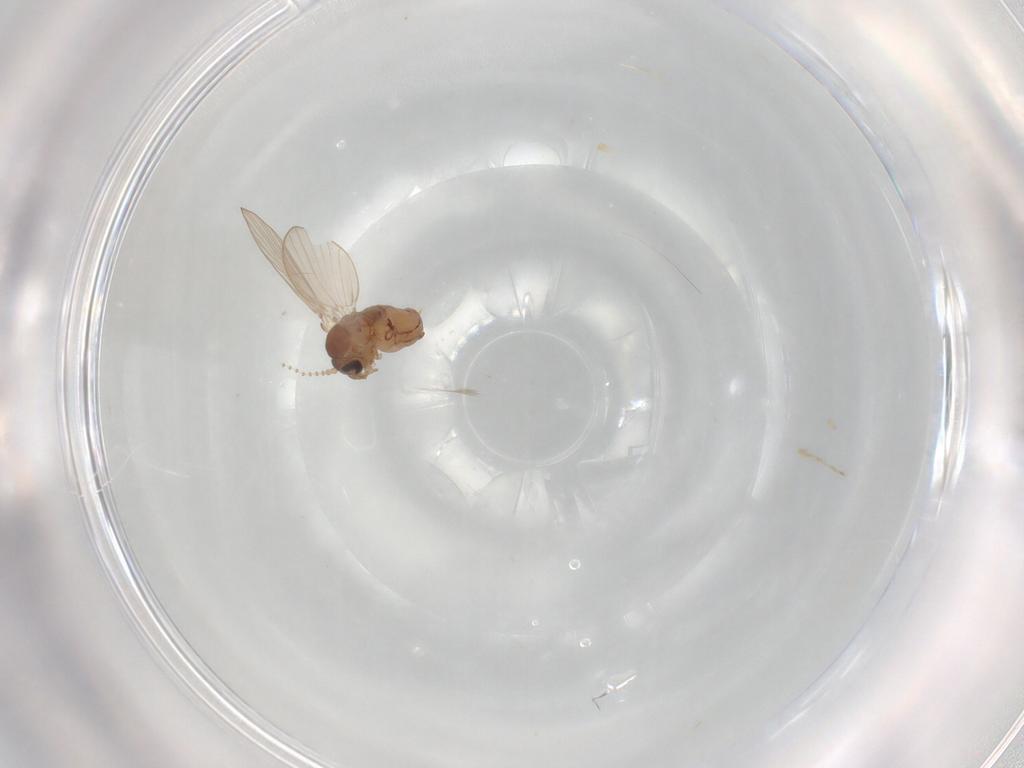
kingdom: Animalia
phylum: Arthropoda
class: Insecta
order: Diptera
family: Psychodidae
